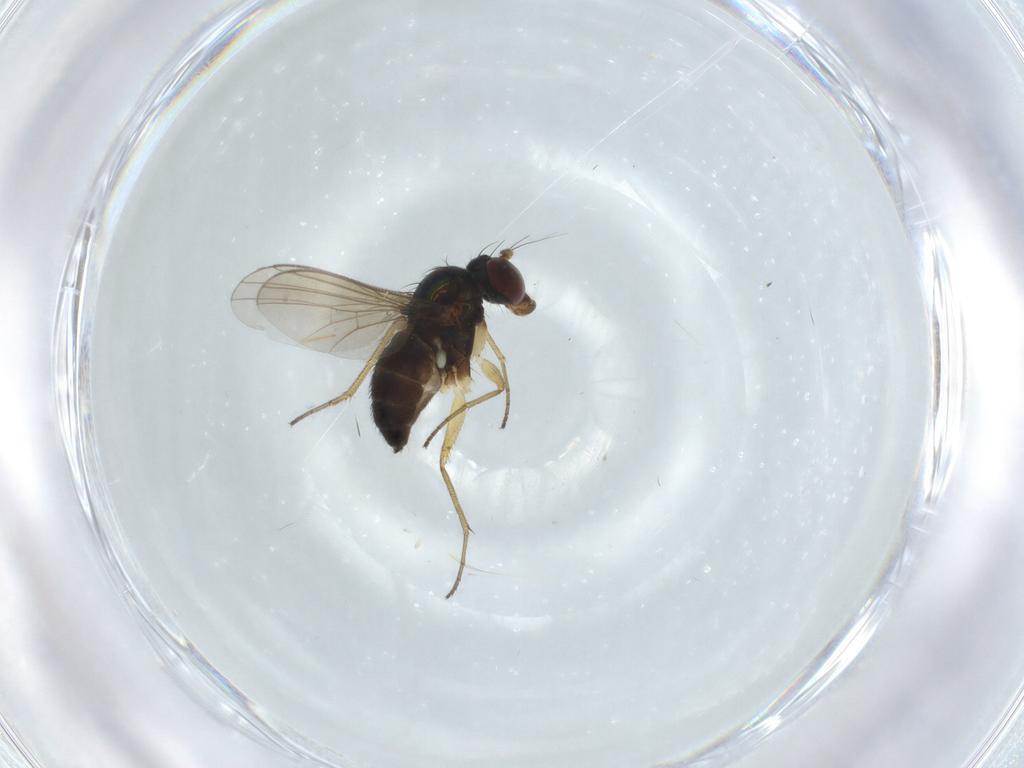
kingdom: Animalia
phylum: Arthropoda
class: Insecta
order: Diptera
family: Dolichopodidae
